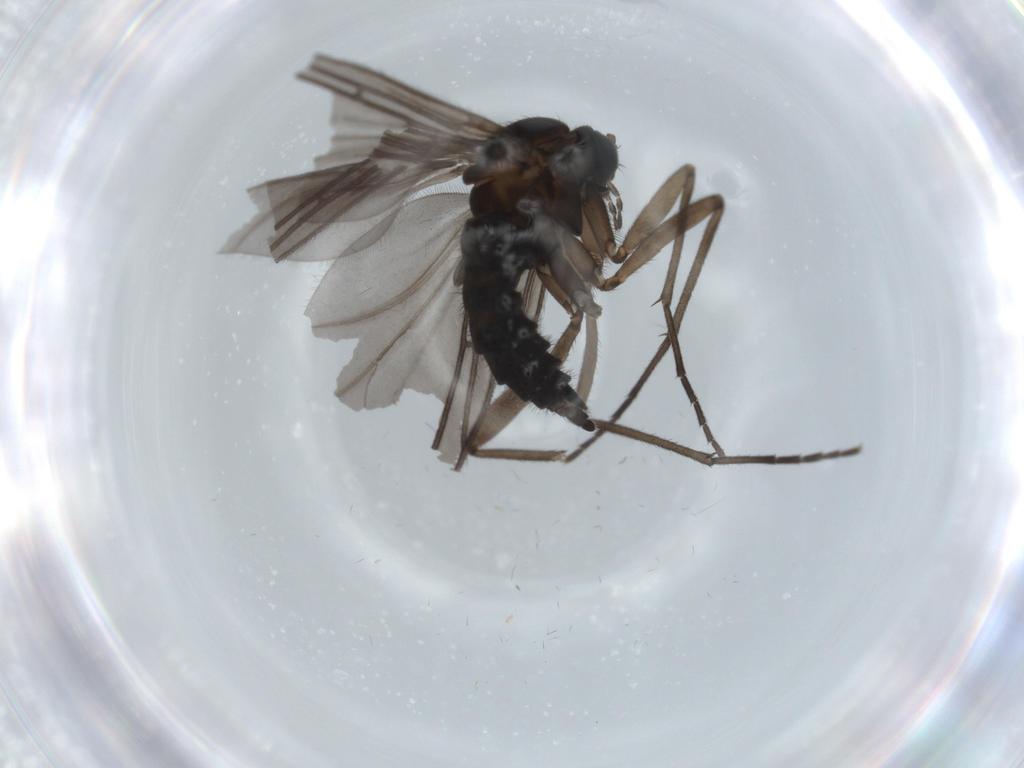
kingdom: Animalia
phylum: Arthropoda
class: Insecta
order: Diptera
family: Sciaridae
